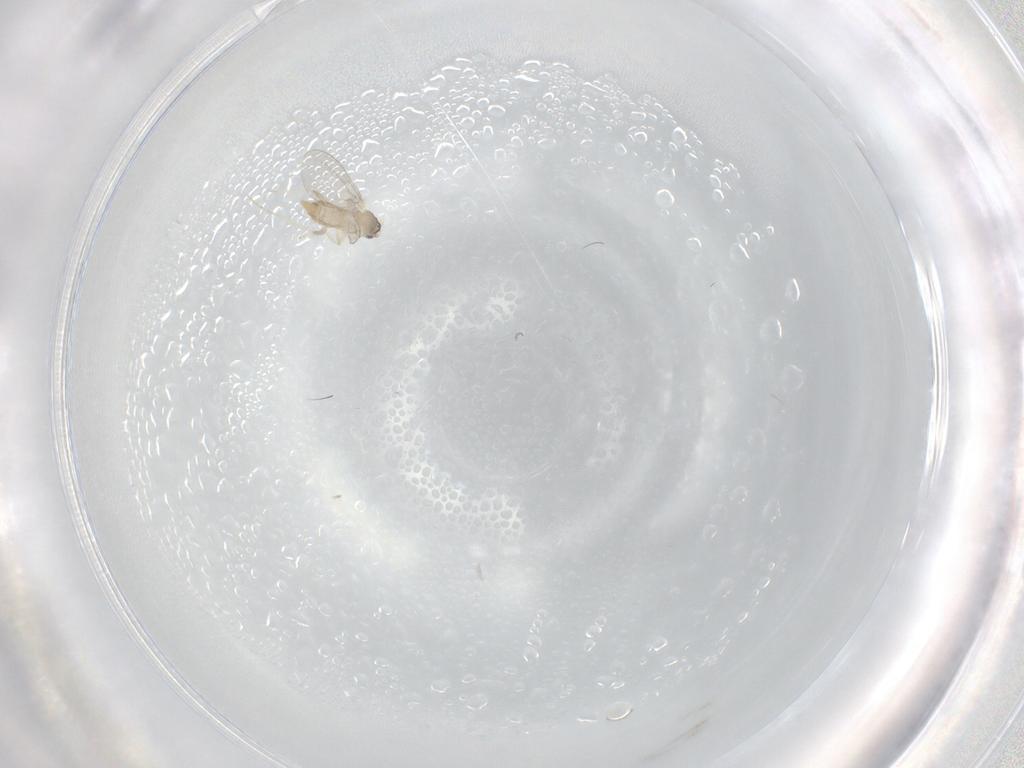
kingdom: Animalia
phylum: Arthropoda
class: Insecta
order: Diptera
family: Cecidomyiidae
